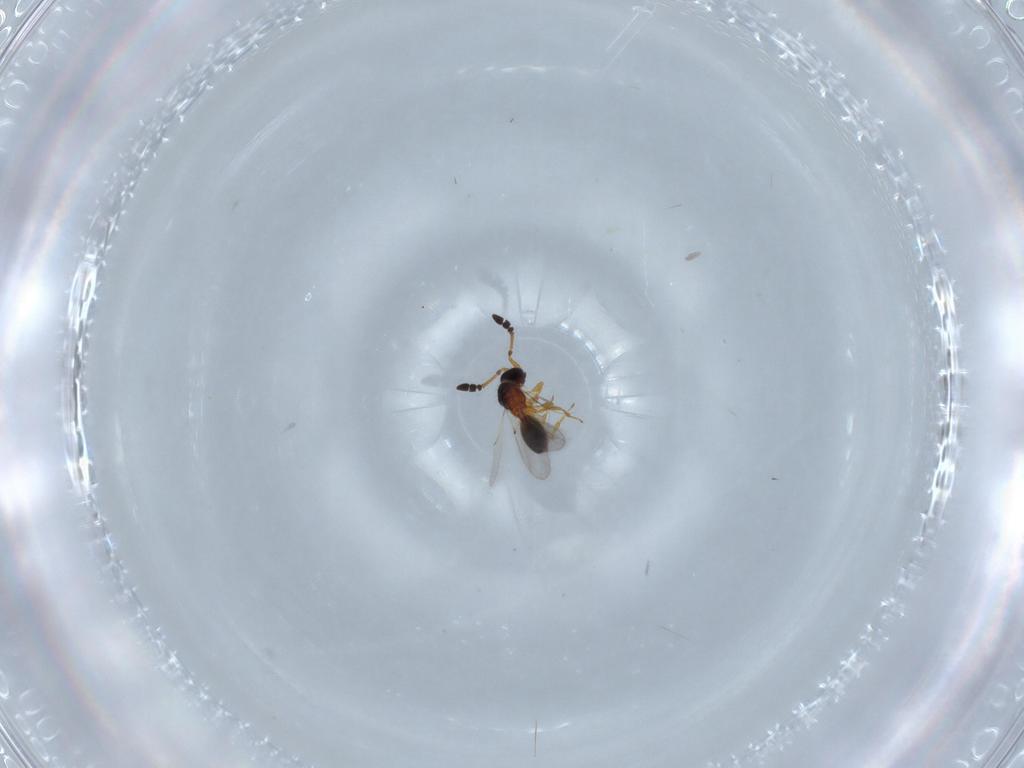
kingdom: Animalia
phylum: Arthropoda
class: Insecta
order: Hymenoptera
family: Diapriidae
